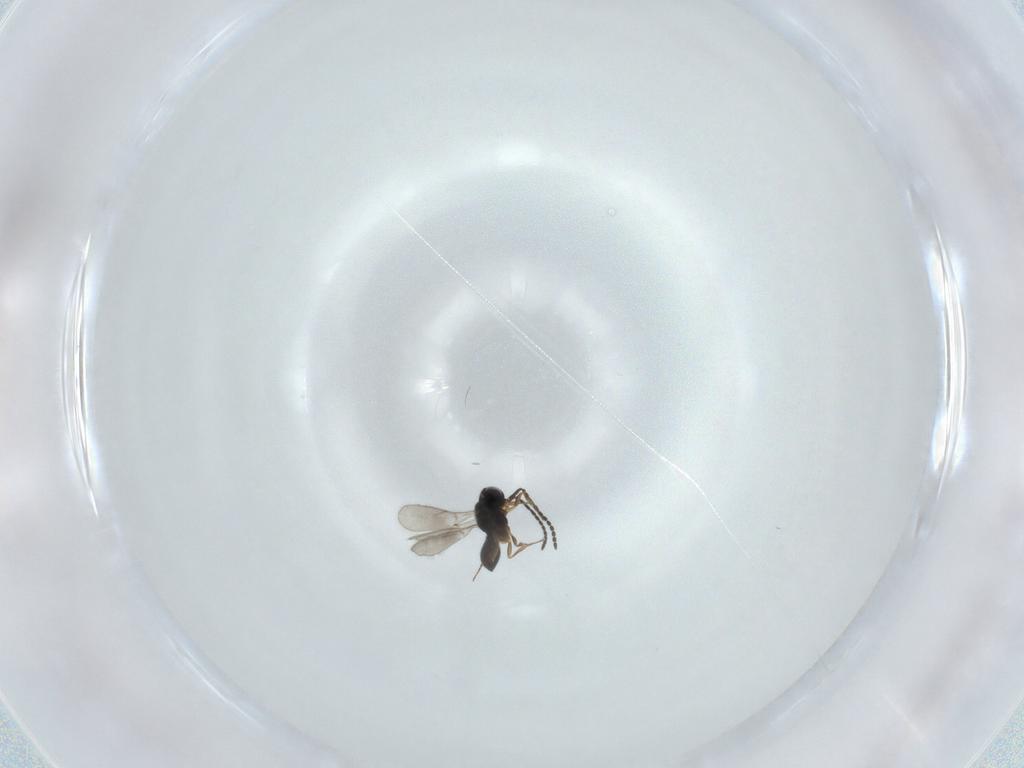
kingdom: Animalia
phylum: Arthropoda
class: Insecta
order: Hymenoptera
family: Scelionidae
